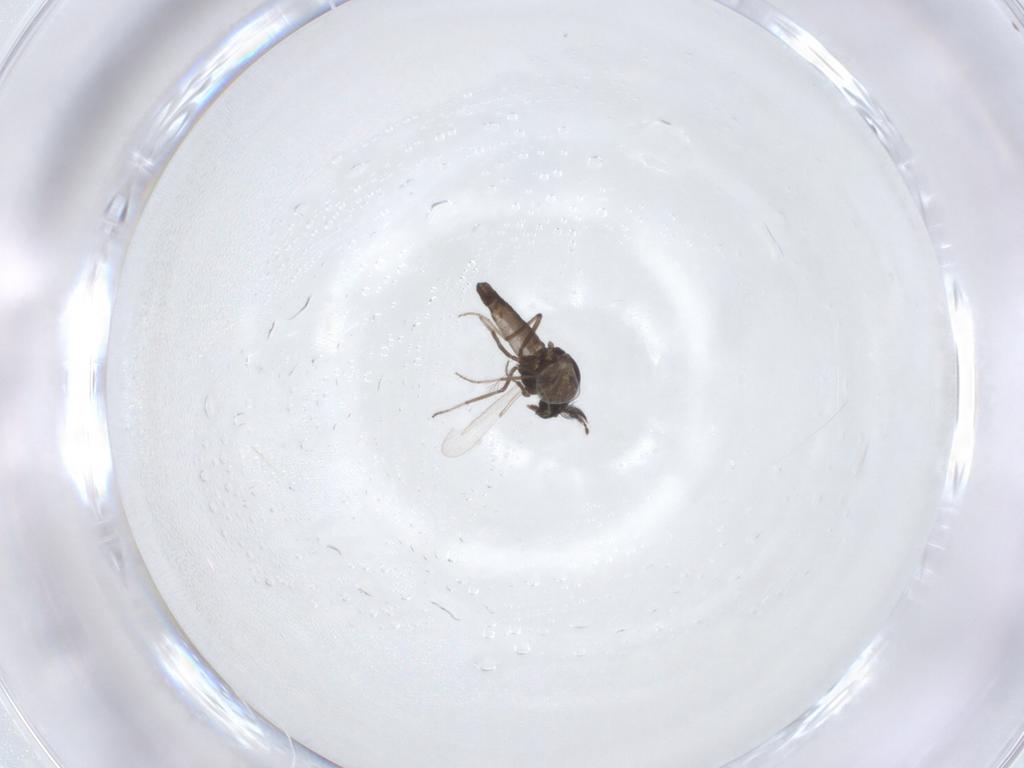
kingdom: Animalia
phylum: Arthropoda
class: Insecta
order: Diptera
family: Ceratopogonidae
